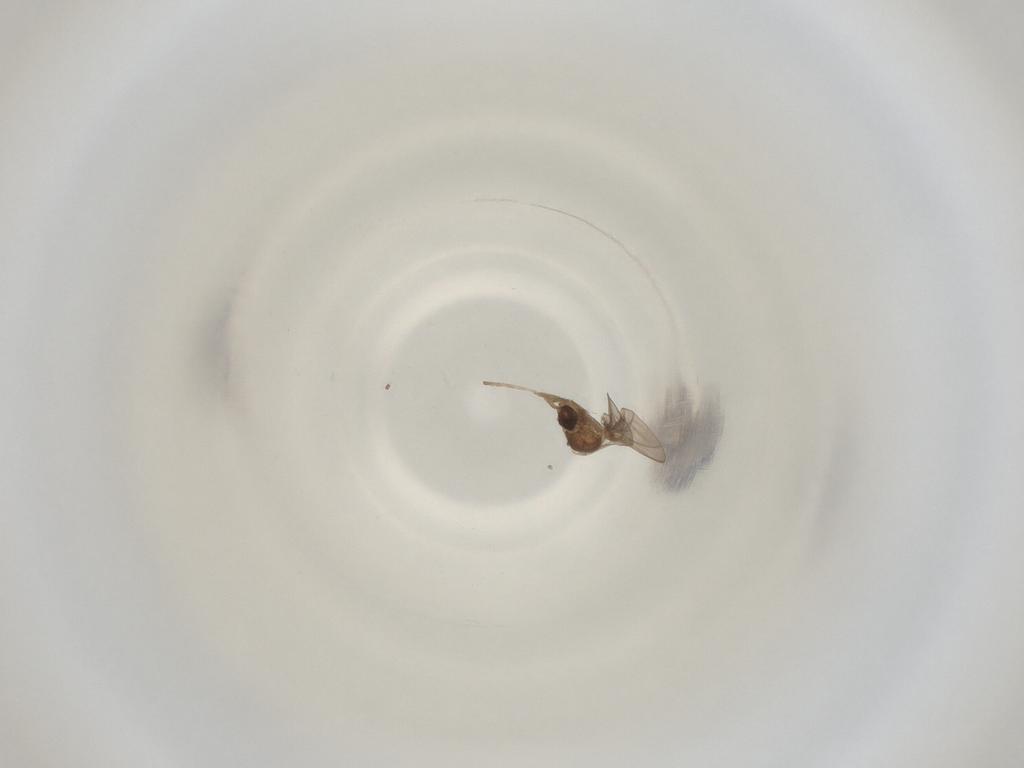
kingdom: Animalia
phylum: Arthropoda
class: Insecta
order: Diptera
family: Cecidomyiidae
